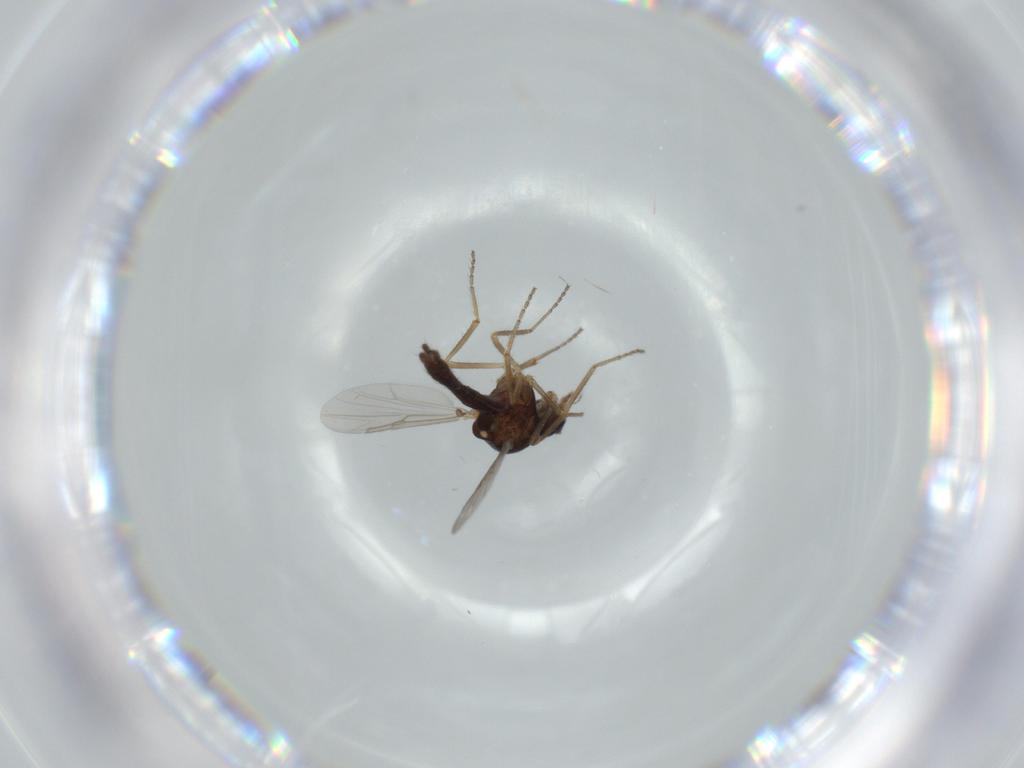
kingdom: Animalia
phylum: Arthropoda
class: Insecta
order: Diptera
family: Ceratopogonidae
